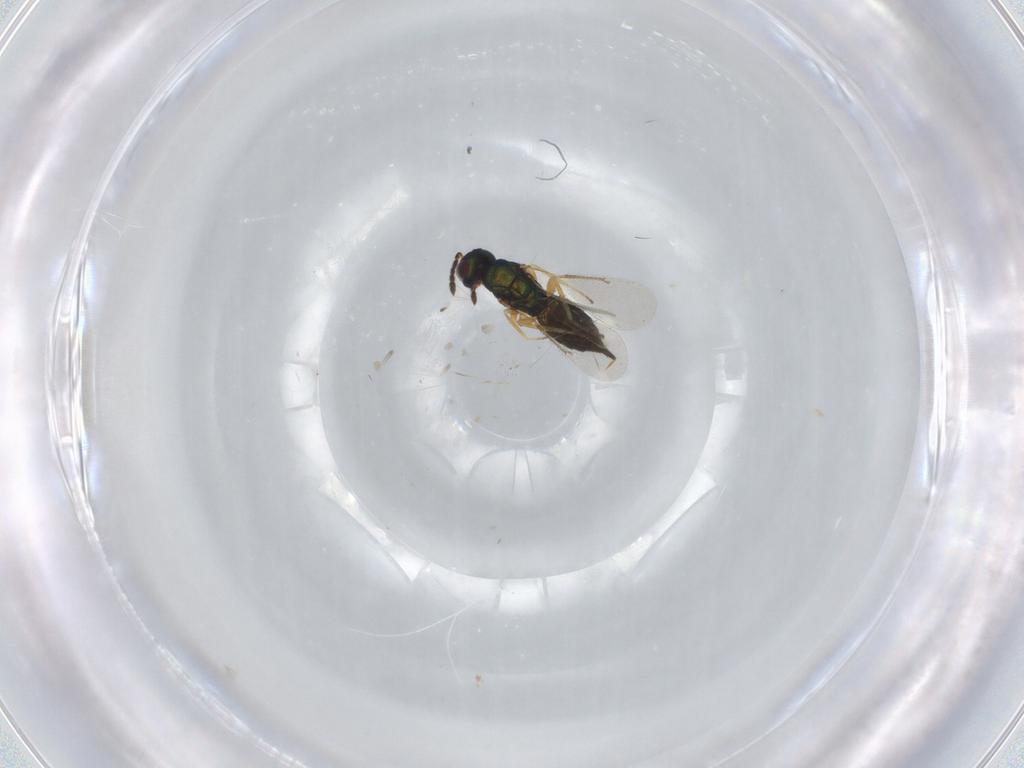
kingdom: Animalia
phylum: Arthropoda
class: Insecta
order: Hymenoptera
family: Eulophidae
